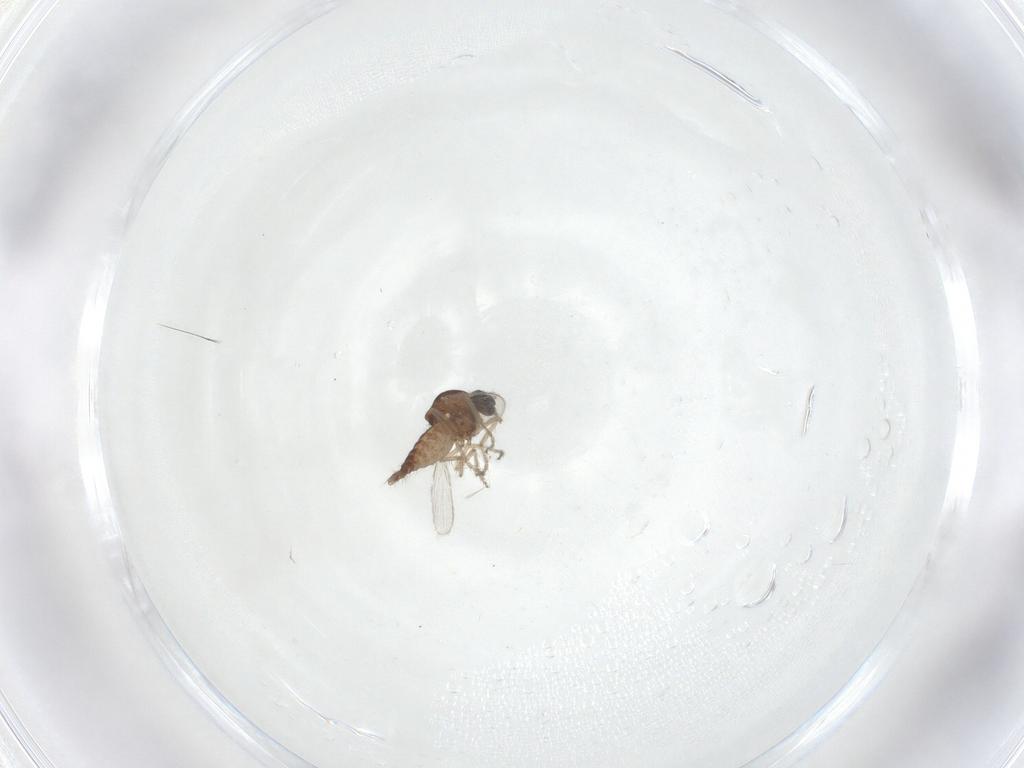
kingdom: Animalia
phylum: Arthropoda
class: Insecta
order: Diptera
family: Ceratopogonidae
